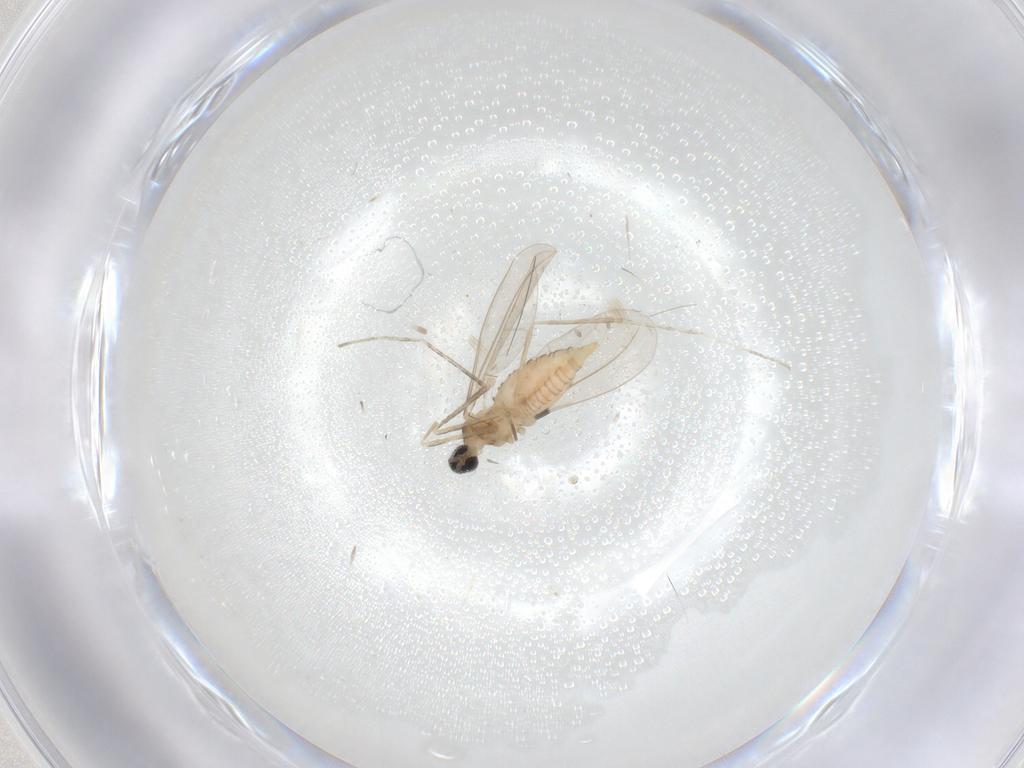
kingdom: Animalia
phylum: Arthropoda
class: Insecta
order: Diptera
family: Cecidomyiidae
